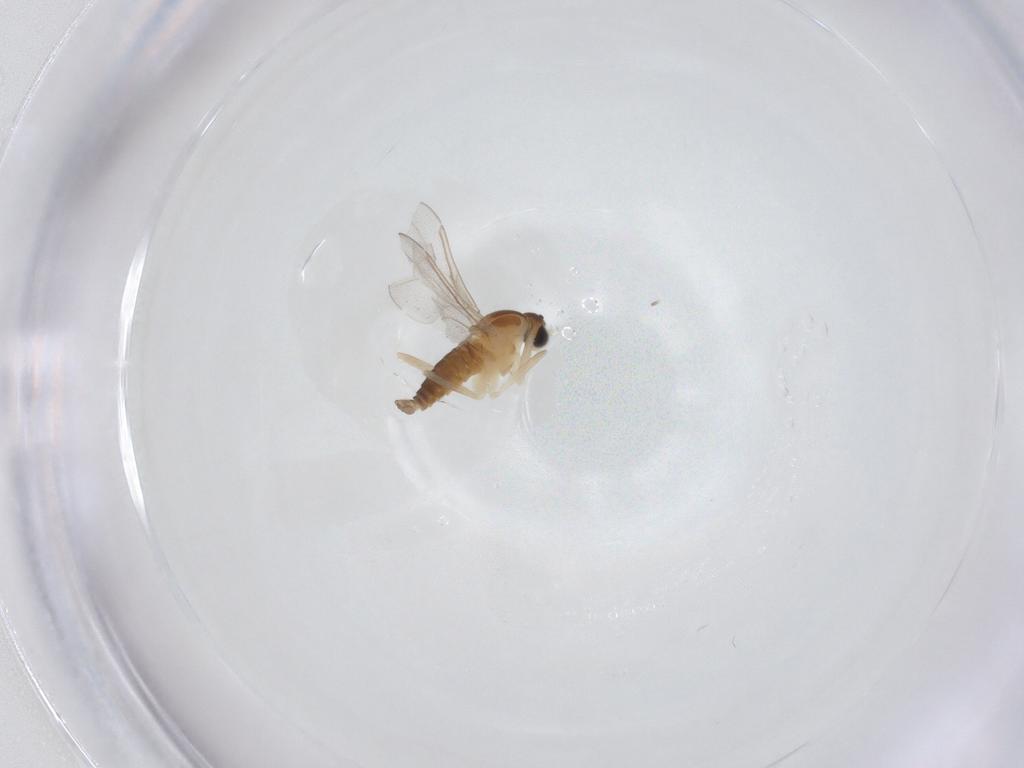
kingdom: Animalia
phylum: Arthropoda
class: Insecta
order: Diptera
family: Cecidomyiidae
